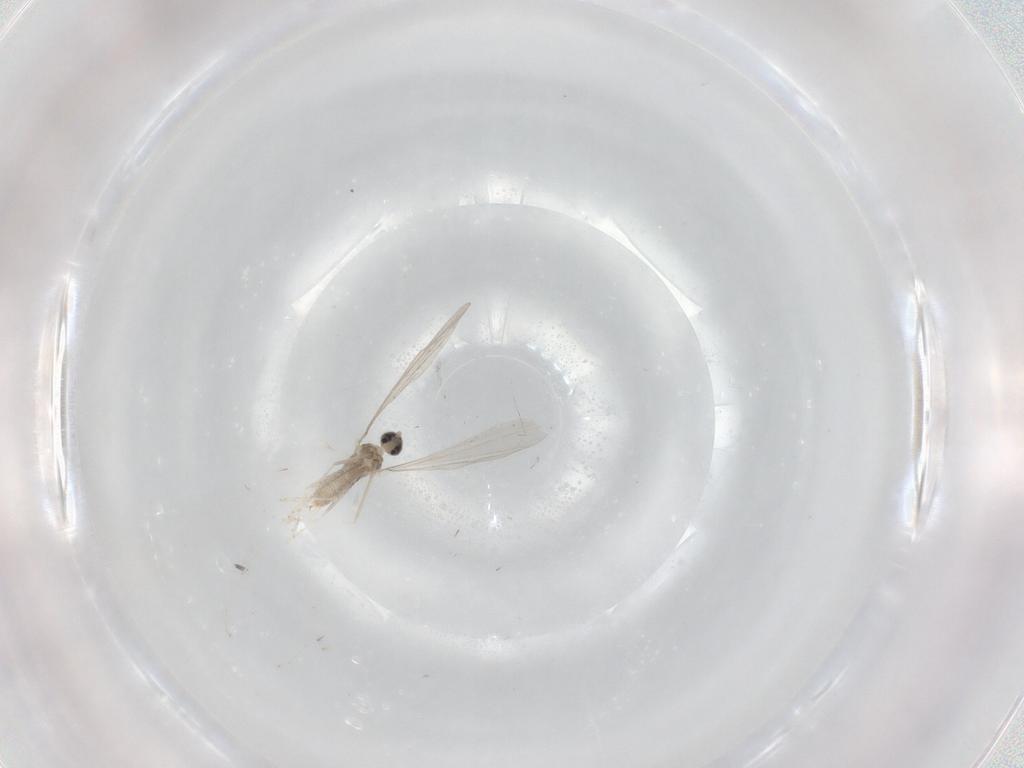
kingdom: Animalia
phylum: Arthropoda
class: Insecta
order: Diptera
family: Cecidomyiidae
